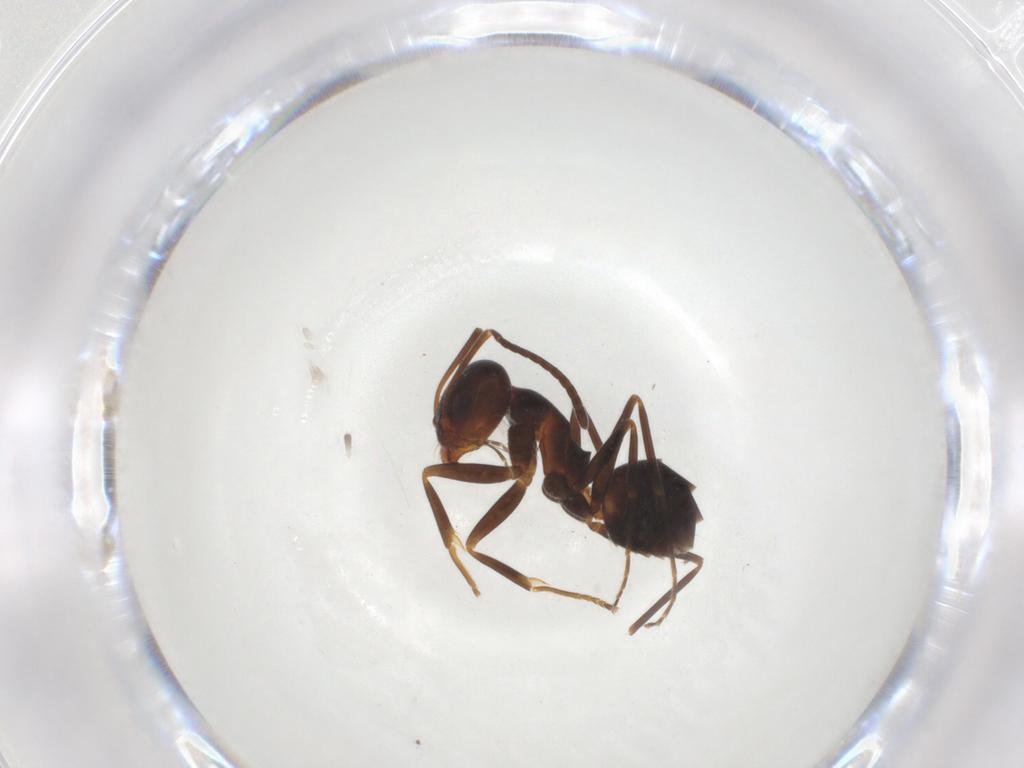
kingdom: Animalia
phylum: Arthropoda
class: Insecta
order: Hymenoptera
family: Formicidae
